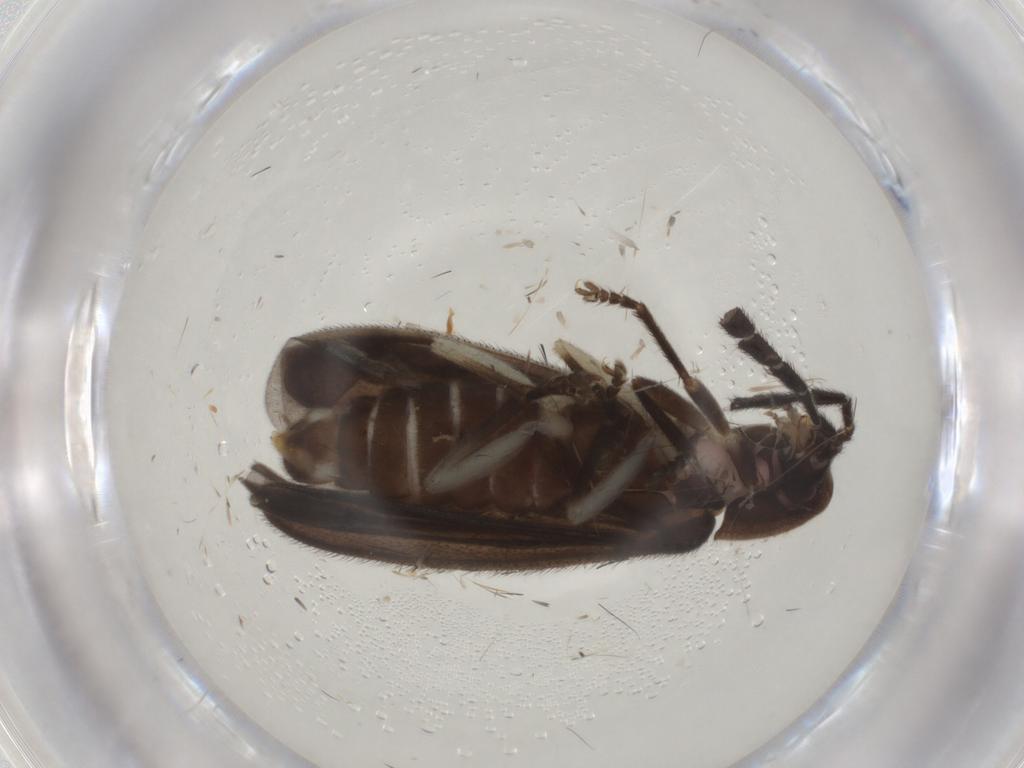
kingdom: Animalia
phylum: Arthropoda
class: Insecta
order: Coleoptera
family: Lampyridae
